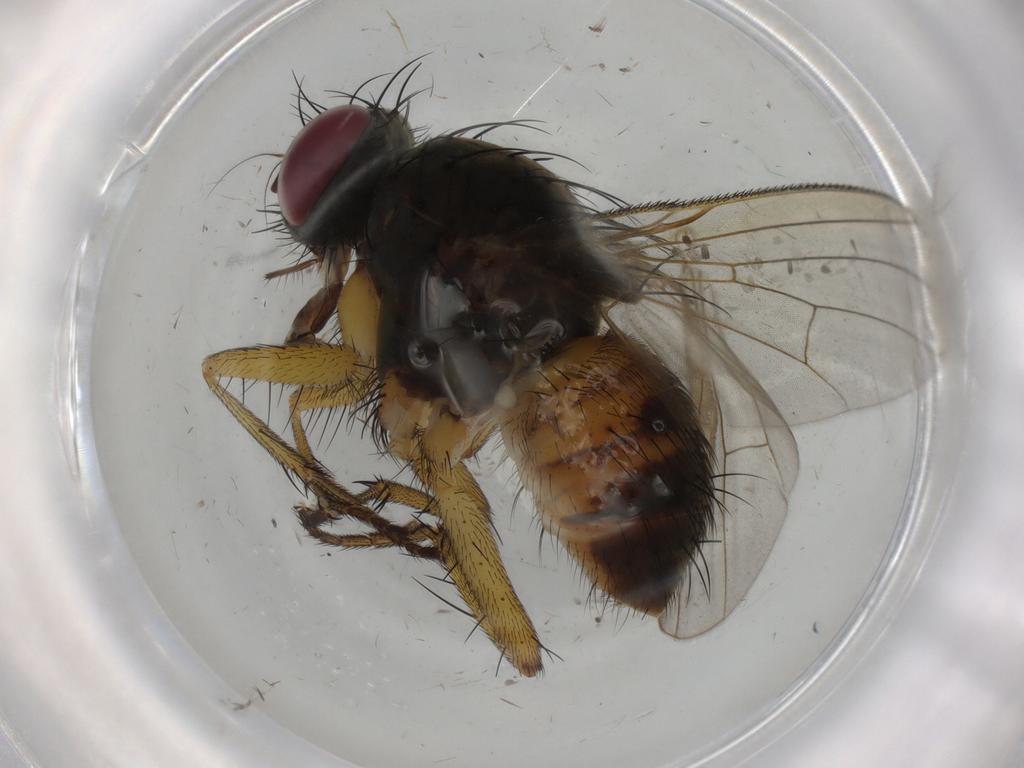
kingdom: Animalia
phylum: Arthropoda
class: Insecta
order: Diptera
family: Muscidae
